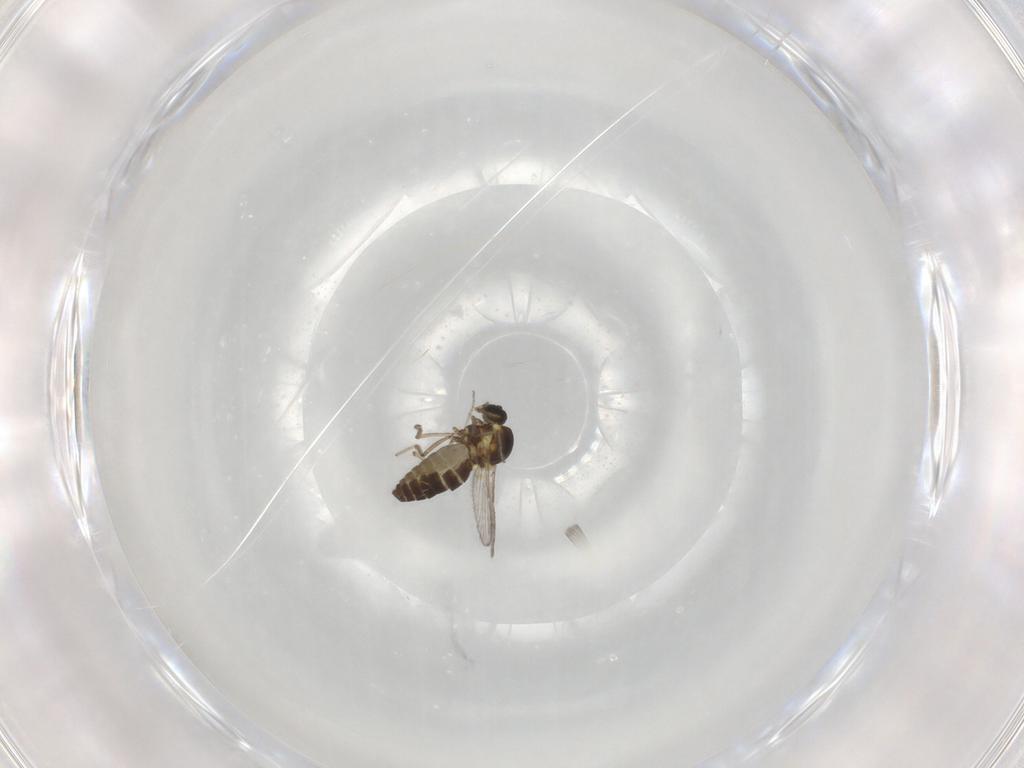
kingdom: Animalia
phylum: Arthropoda
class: Insecta
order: Diptera
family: Ceratopogonidae
